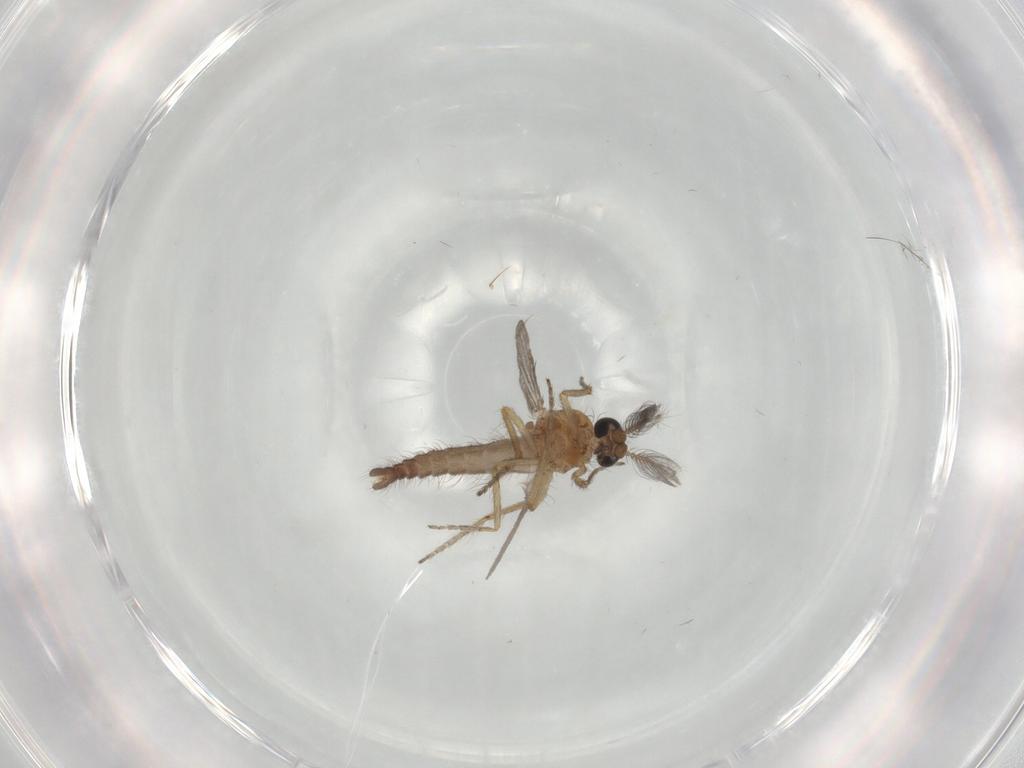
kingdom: Animalia
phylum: Arthropoda
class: Insecta
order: Diptera
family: Ceratopogonidae
